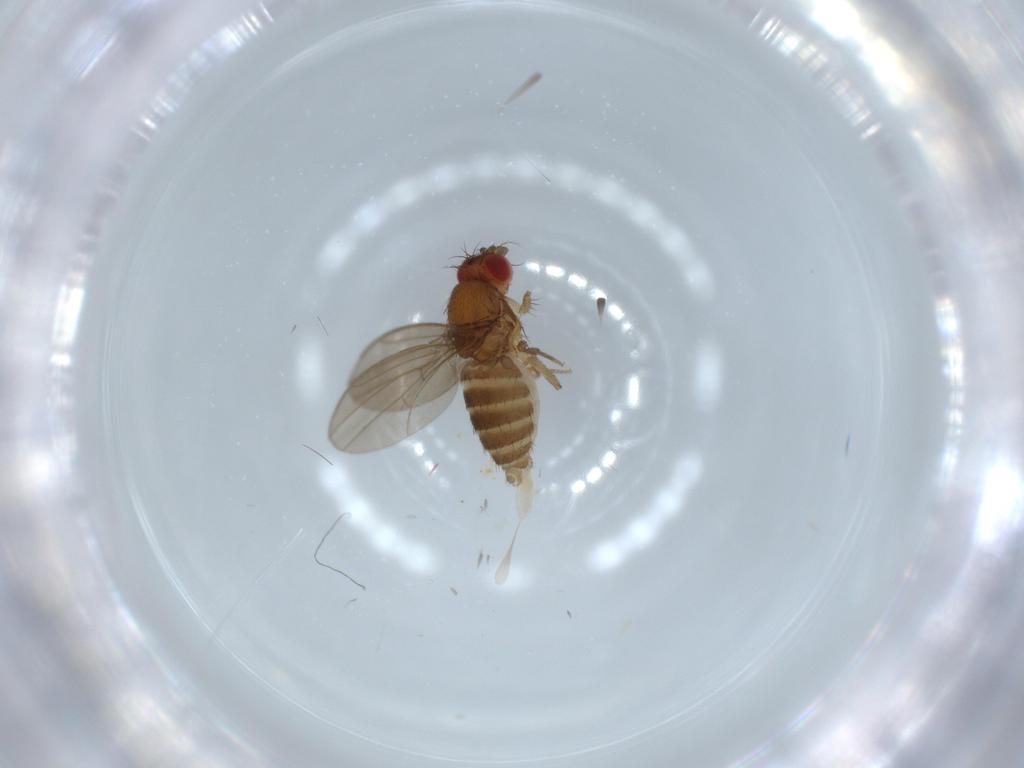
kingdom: Animalia
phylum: Arthropoda
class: Insecta
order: Diptera
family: Drosophilidae
